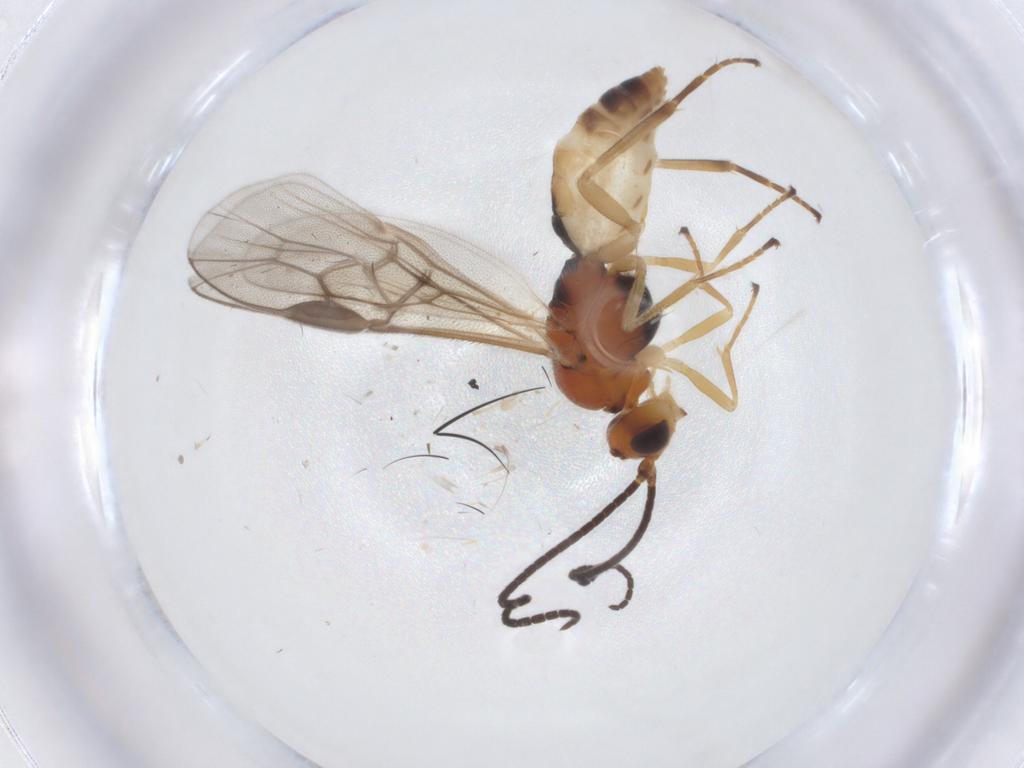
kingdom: Animalia
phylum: Arthropoda
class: Insecta
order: Hymenoptera
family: Braconidae
